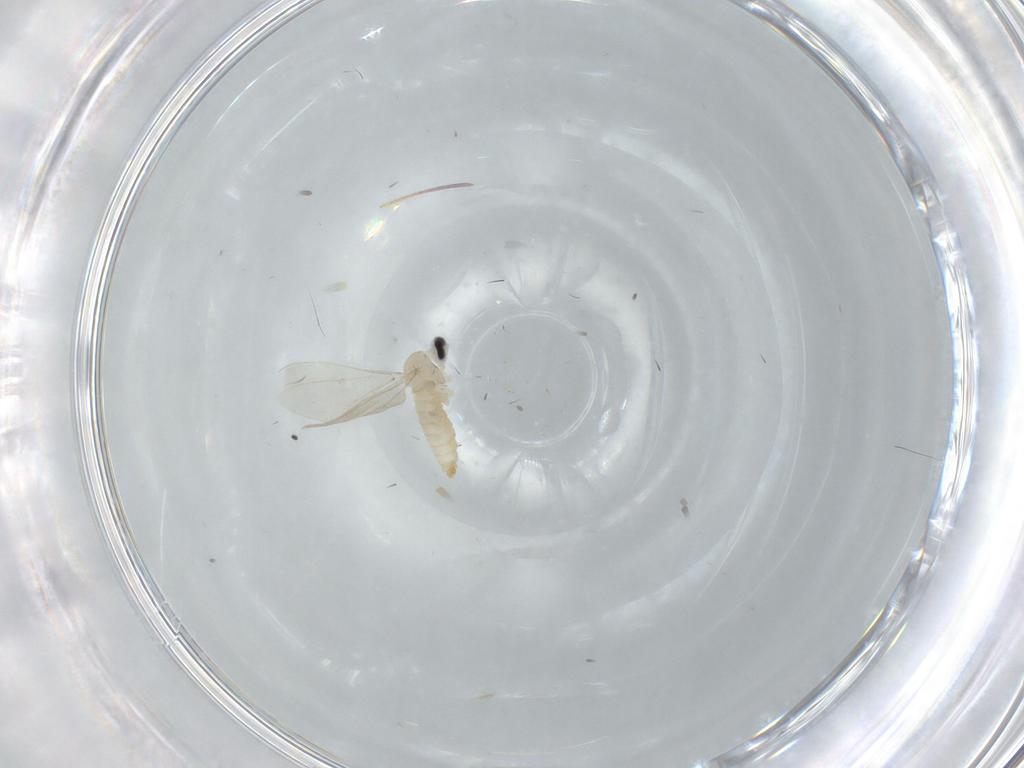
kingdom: Animalia
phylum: Arthropoda
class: Insecta
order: Diptera
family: Cecidomyiidae
